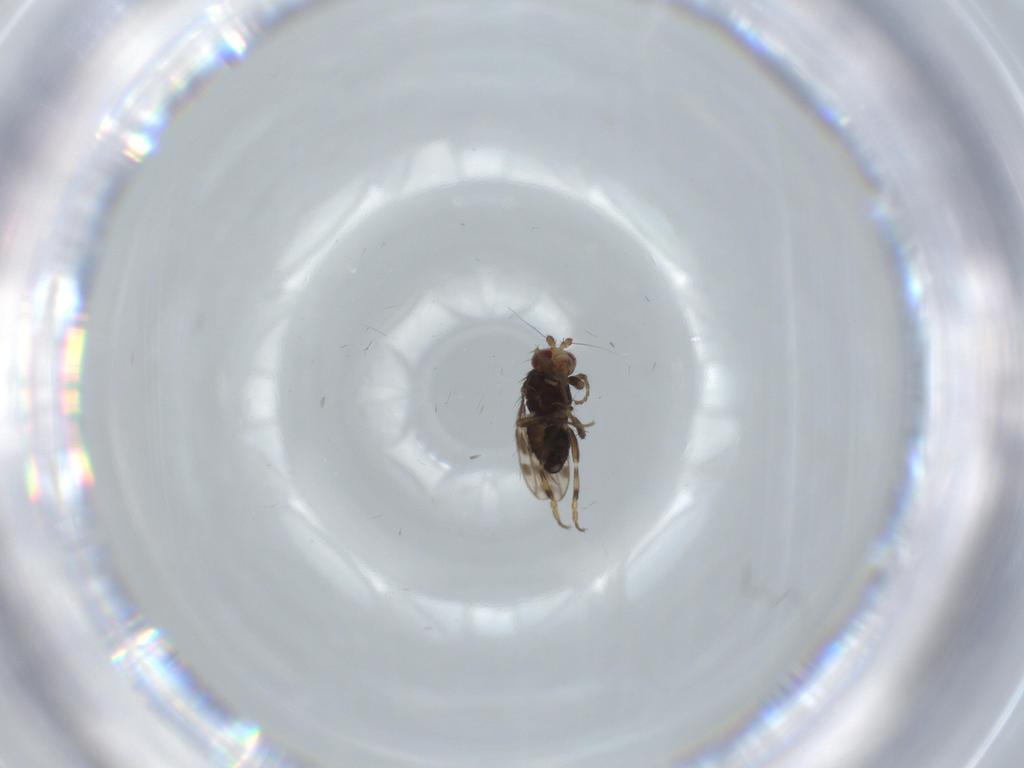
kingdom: Animalia
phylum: Arthropoda
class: Insecta
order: Diptera
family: Sphaeroceridae
